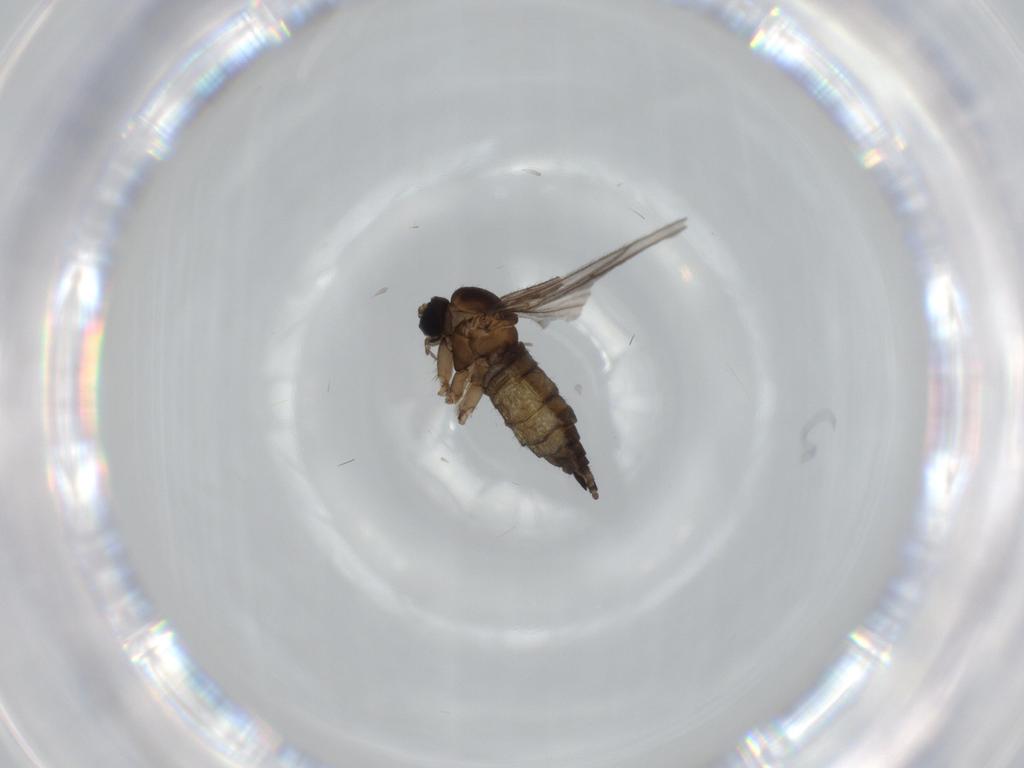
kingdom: Animalia
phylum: Arthropoda
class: Insecta
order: Diptera
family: Sciaridae
